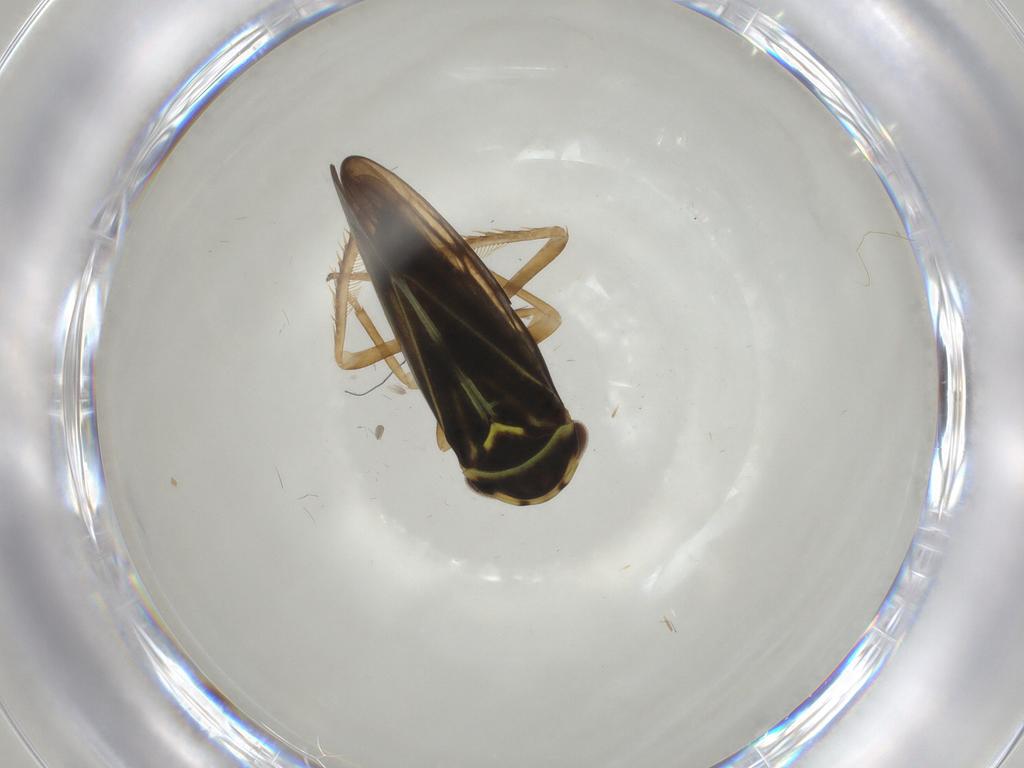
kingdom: Animalia
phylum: Arthropoda
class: Insecta
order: Hemiptera
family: Cicadellidae
